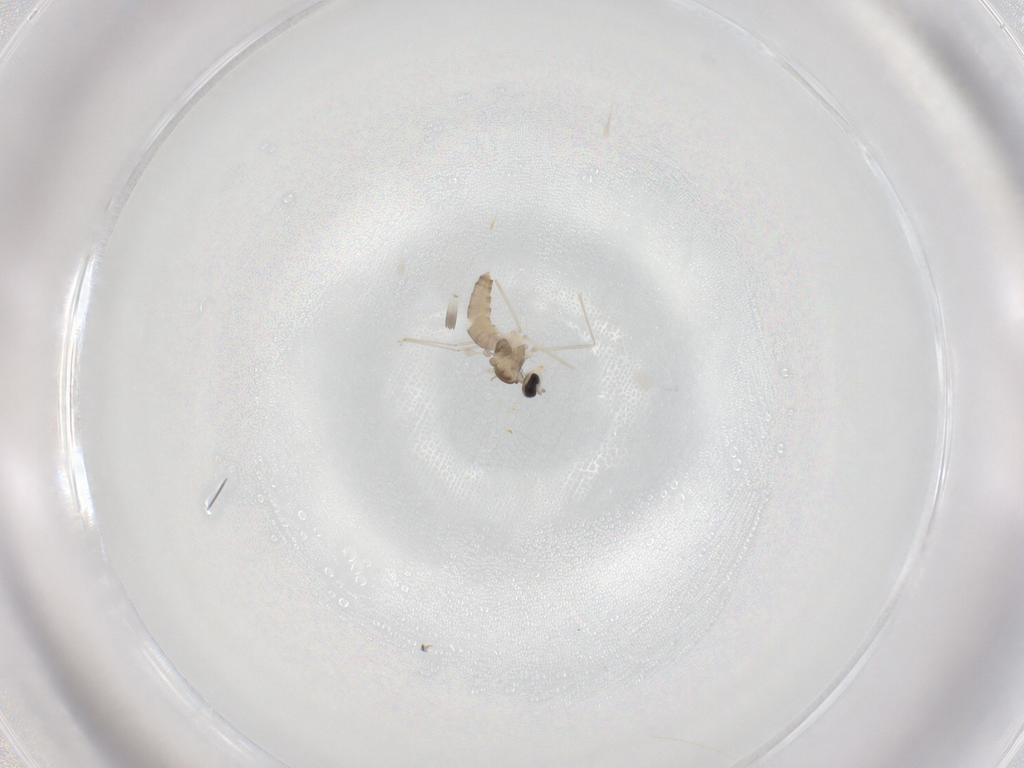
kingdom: Animalia
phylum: Arthropoda
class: Insecta
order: Diptera
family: Cecidomyiidae
